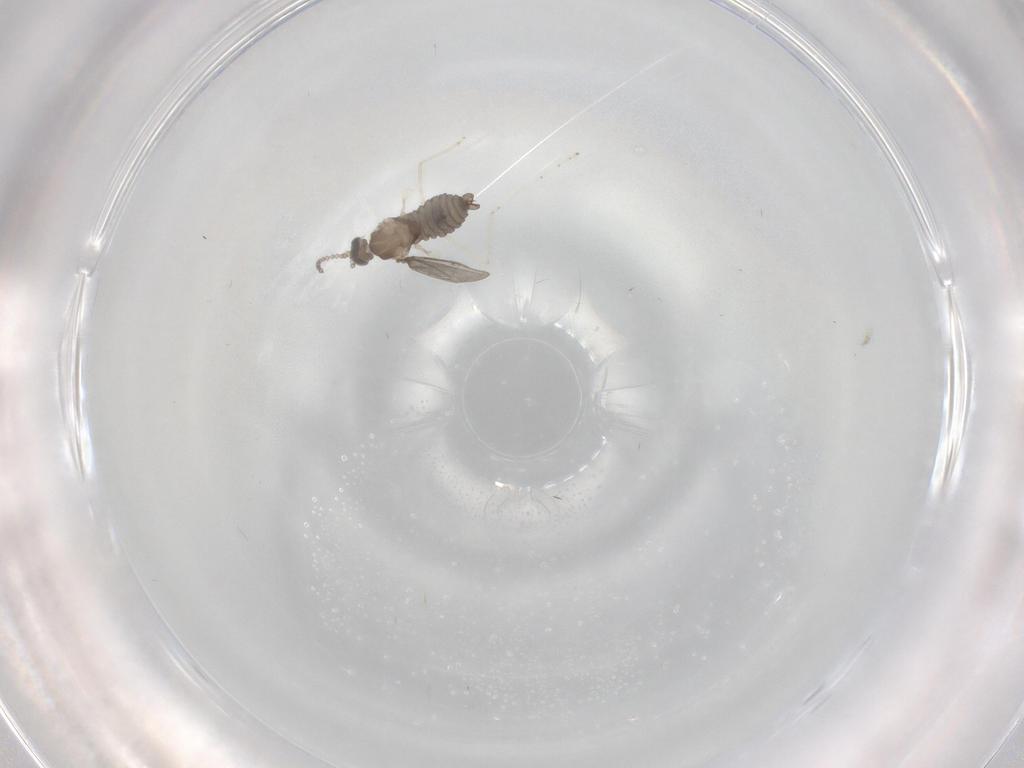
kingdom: Animalia
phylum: Arthropoda
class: Insecta
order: Diptera
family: Cecidomyiidae
